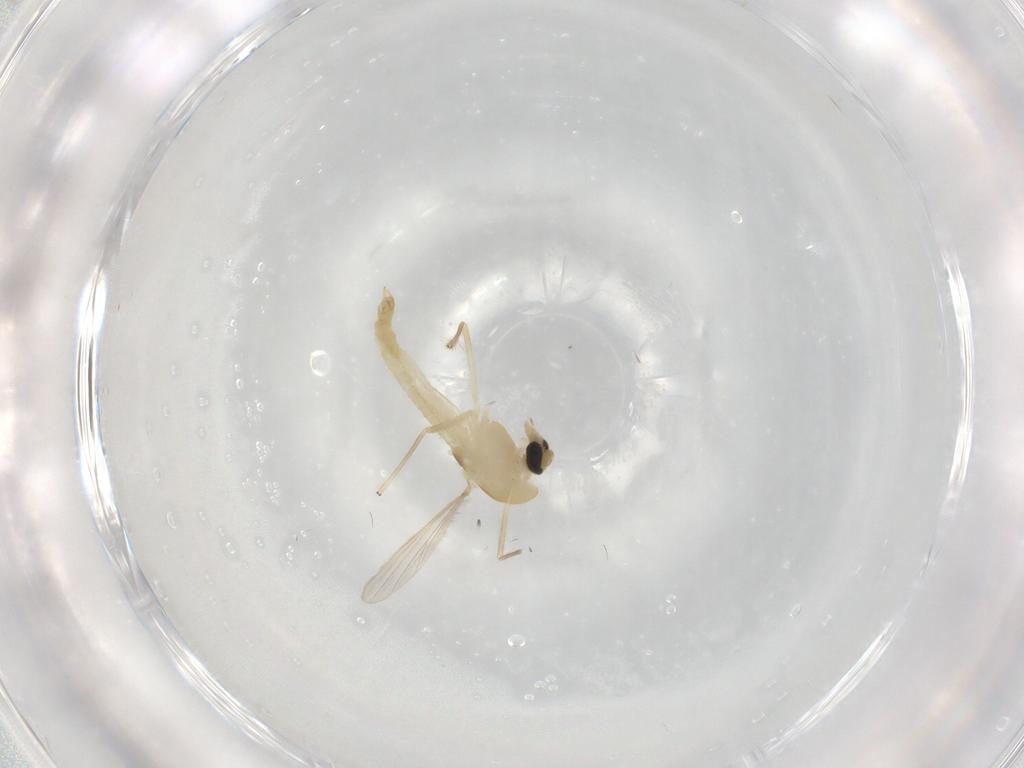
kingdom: Animalia
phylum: Arthropoda
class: Insecta
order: Diptera
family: Chironomidae
